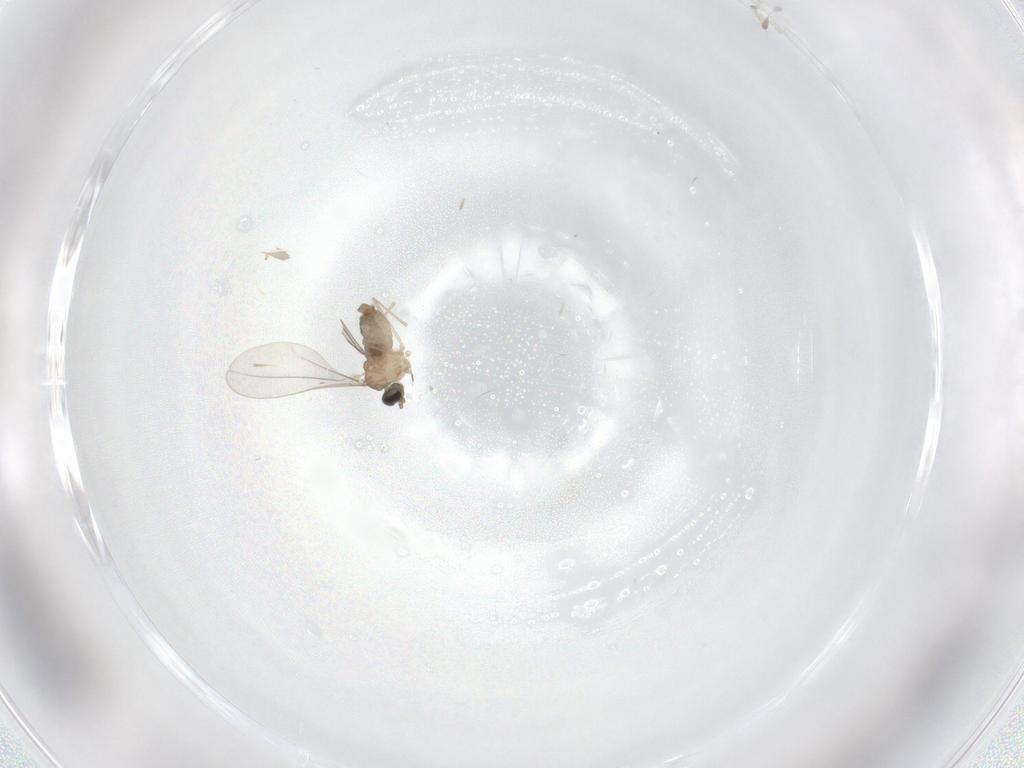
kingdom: Animalia
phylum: Arthropoda
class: Insecta
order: Diptera
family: Cecidomyiidae
